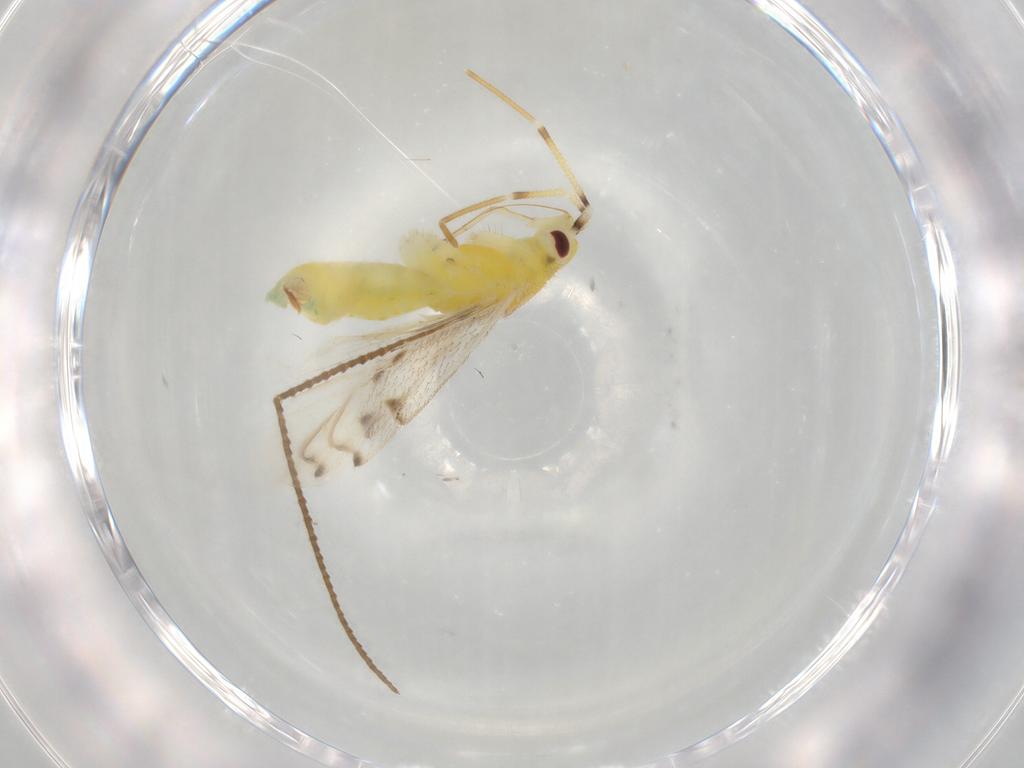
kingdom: Animalia
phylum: Arthropoda
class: Insecta
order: Hemiptera
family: Miridae
